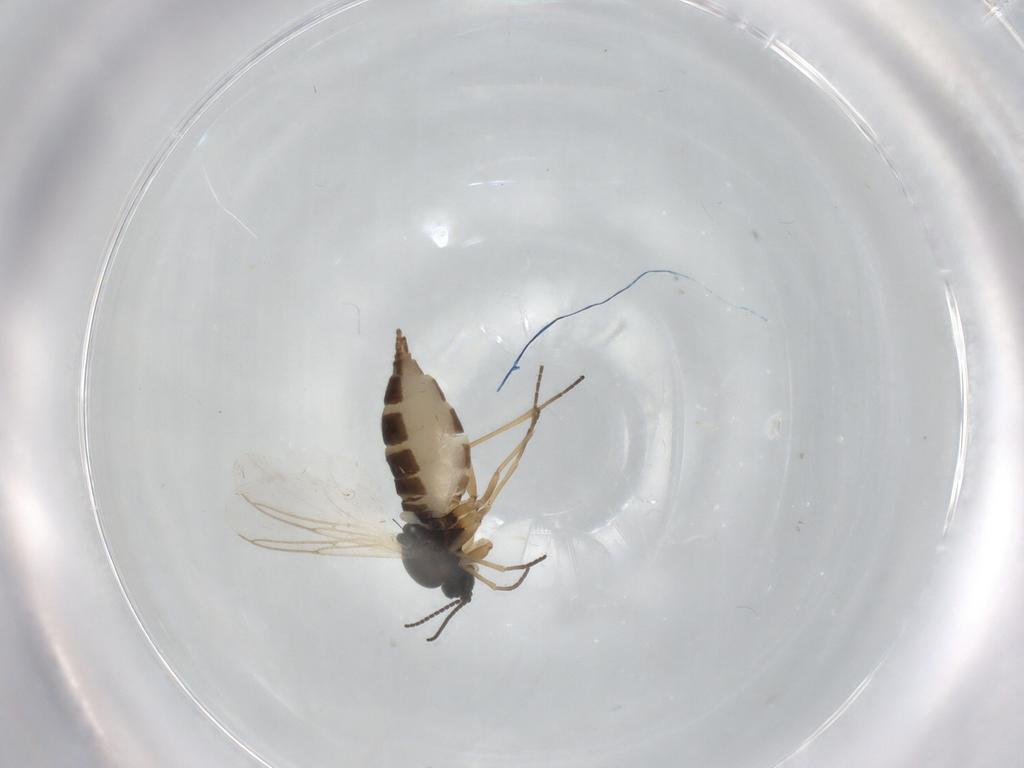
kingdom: Animalia
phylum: Arthropoda
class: Insecta
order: Diptera
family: Sciaridae
